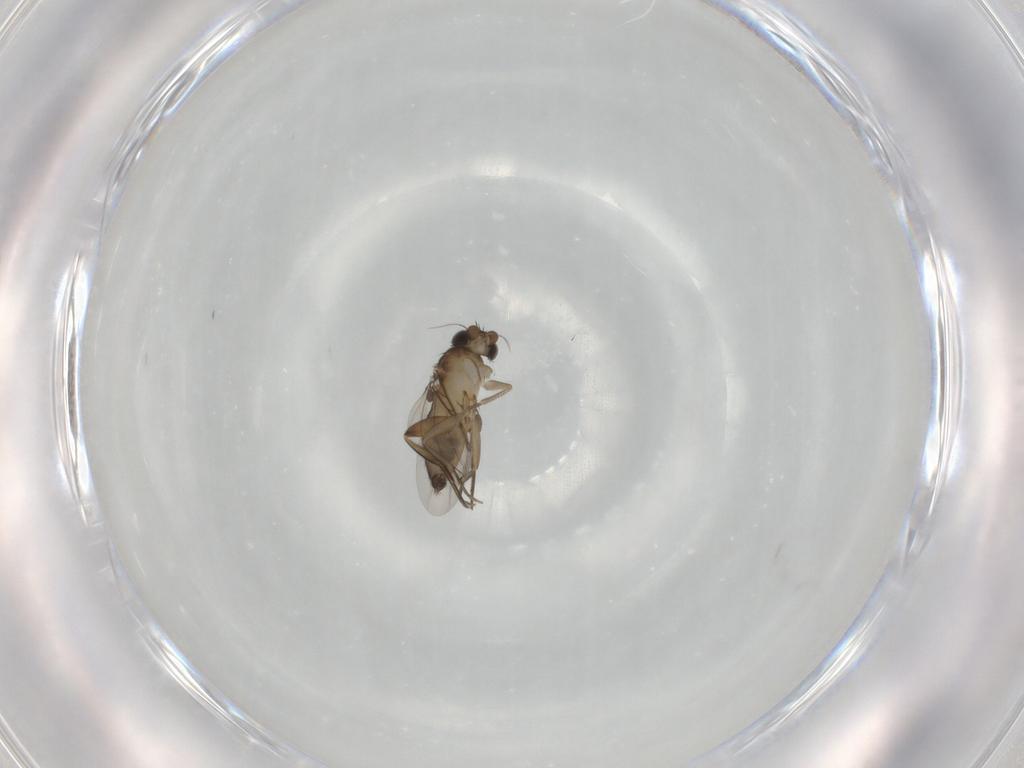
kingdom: Animalia
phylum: Arthropoda
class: Insecta
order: Diptera
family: Phoridae
